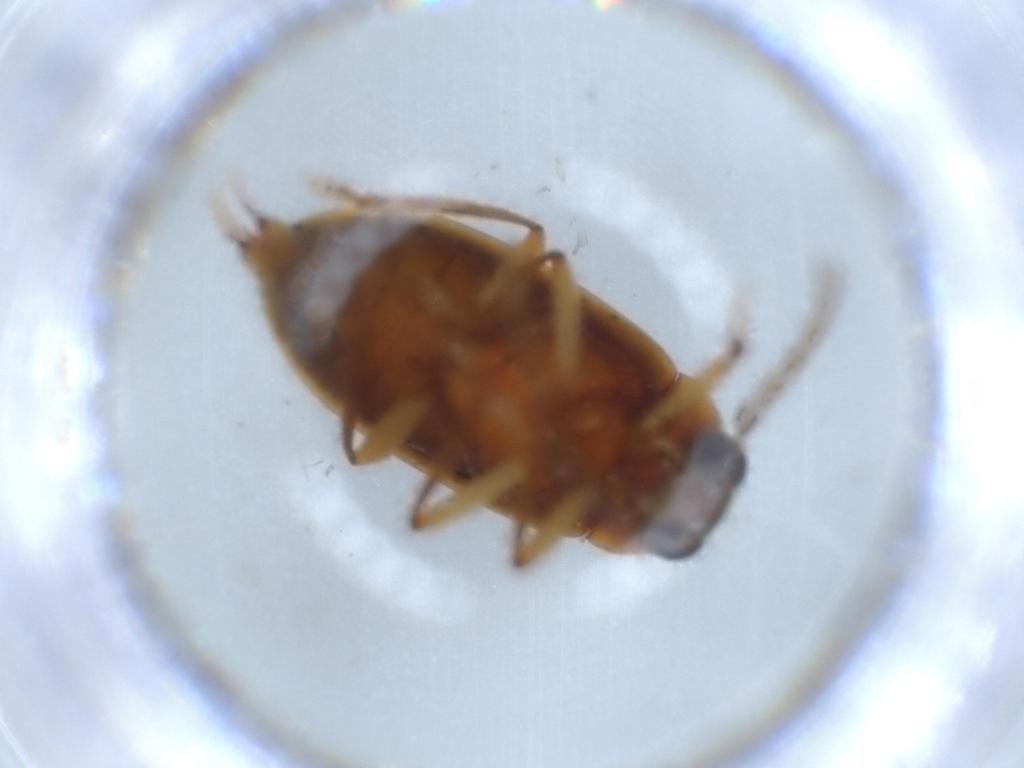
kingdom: Animalia
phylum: Arthropoda
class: Insecta
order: Coleoptera
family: Ptilodactylidae
